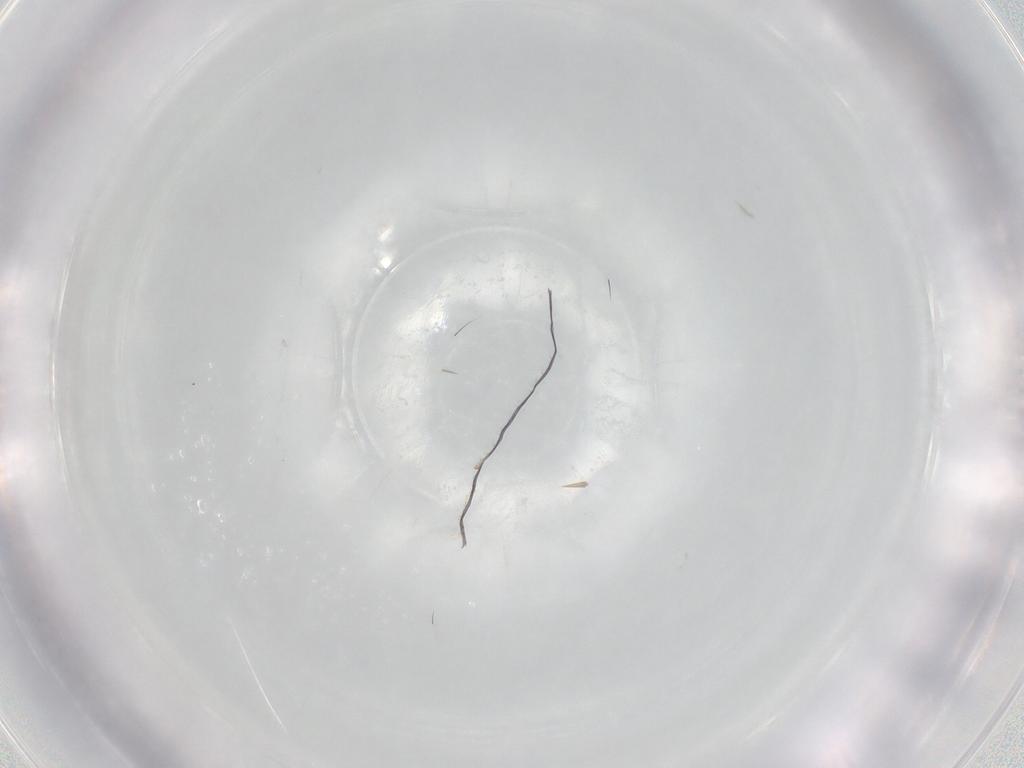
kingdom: Animalia
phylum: Arthropoda
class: Insecta
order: Diptera
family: Cecidomyiidae
